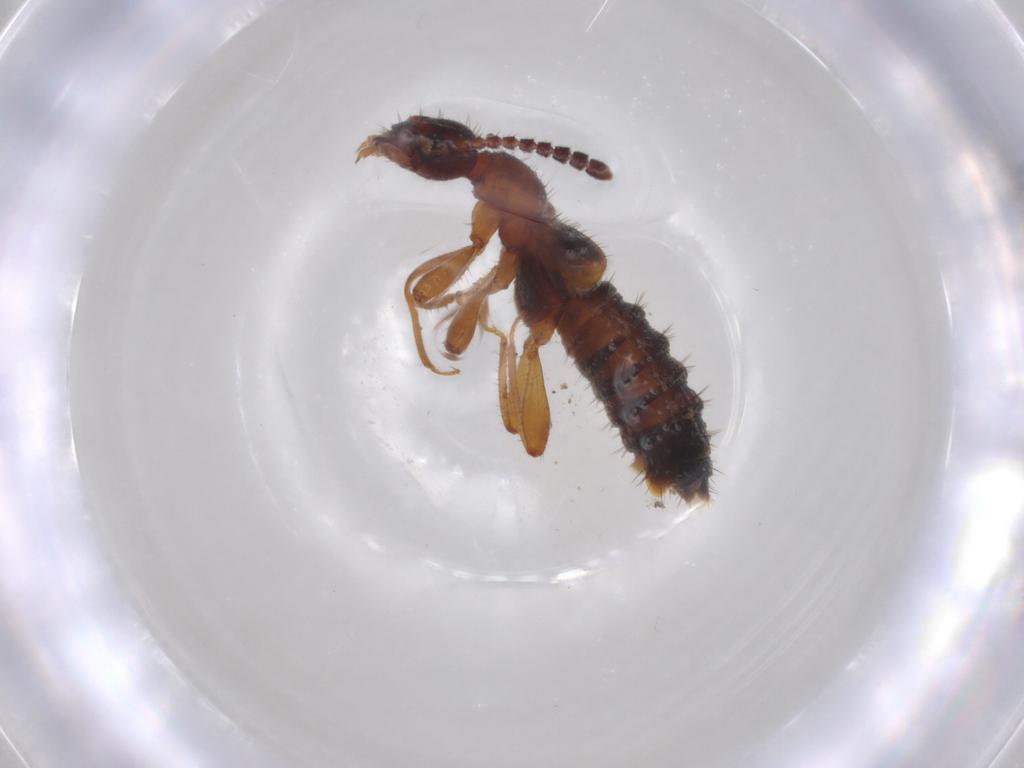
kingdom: Animalia
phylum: Arthropoda
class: Insecta
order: Coleoptera
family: Staphylinidae
